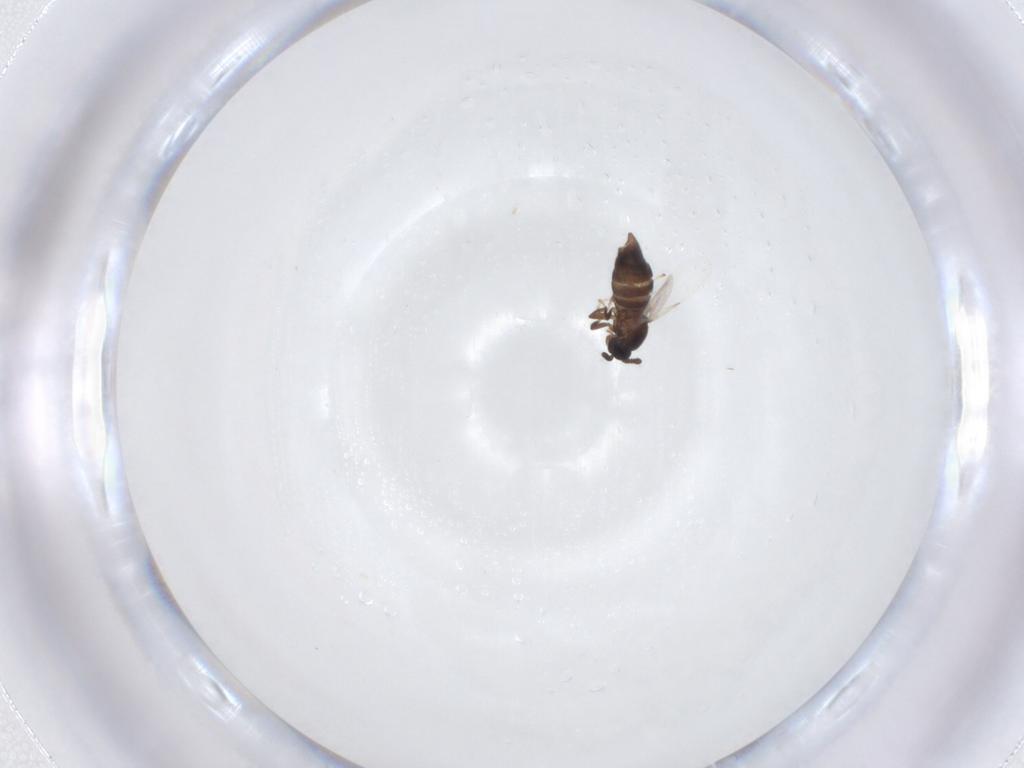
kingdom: Animalia
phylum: Arthropoda
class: Insecta
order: Diptera
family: Scatopsidae
